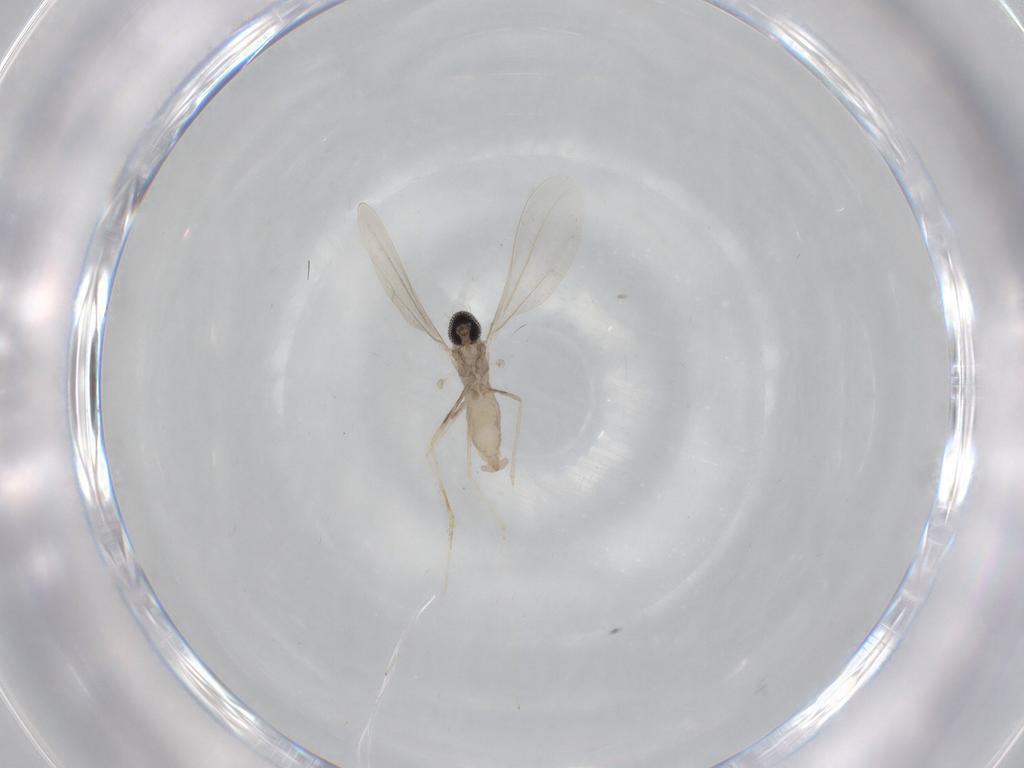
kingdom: Animalia
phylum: Arthropoda
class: Insecta
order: Diptera
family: Cecidomyiidae
